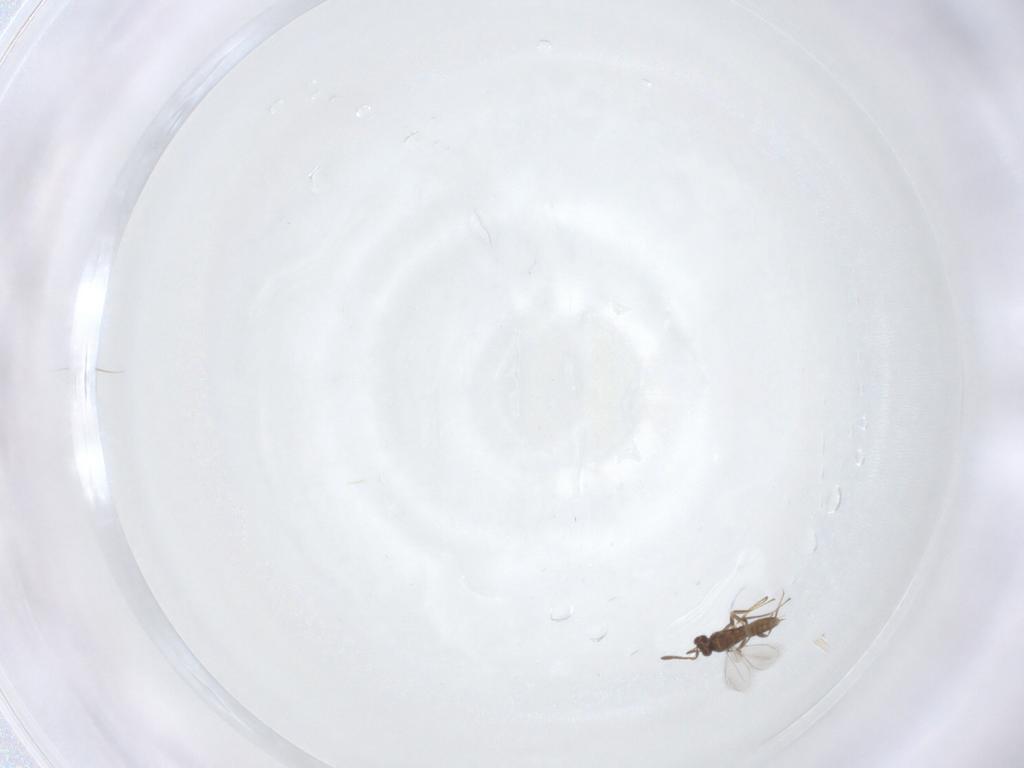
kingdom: Animalia
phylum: Arthropoda
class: Insecta
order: Hymenoptera
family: Mymaridae
